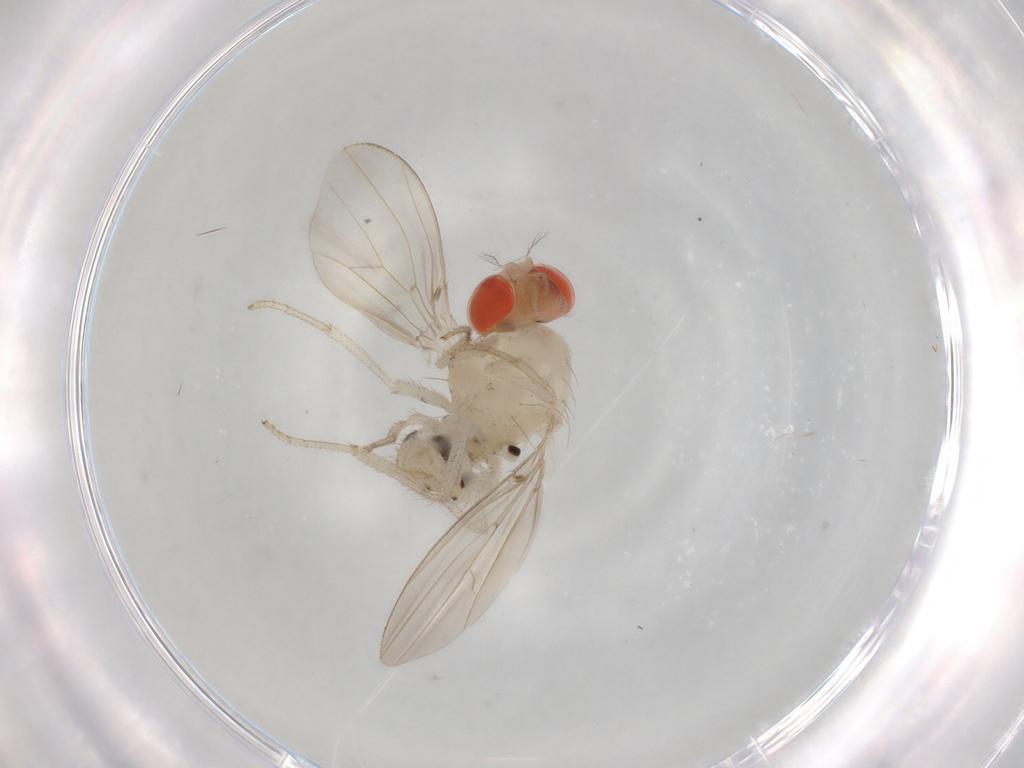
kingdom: Animalia
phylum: Arthropoda
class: Insecta
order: Diptera
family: Drosophilidae
